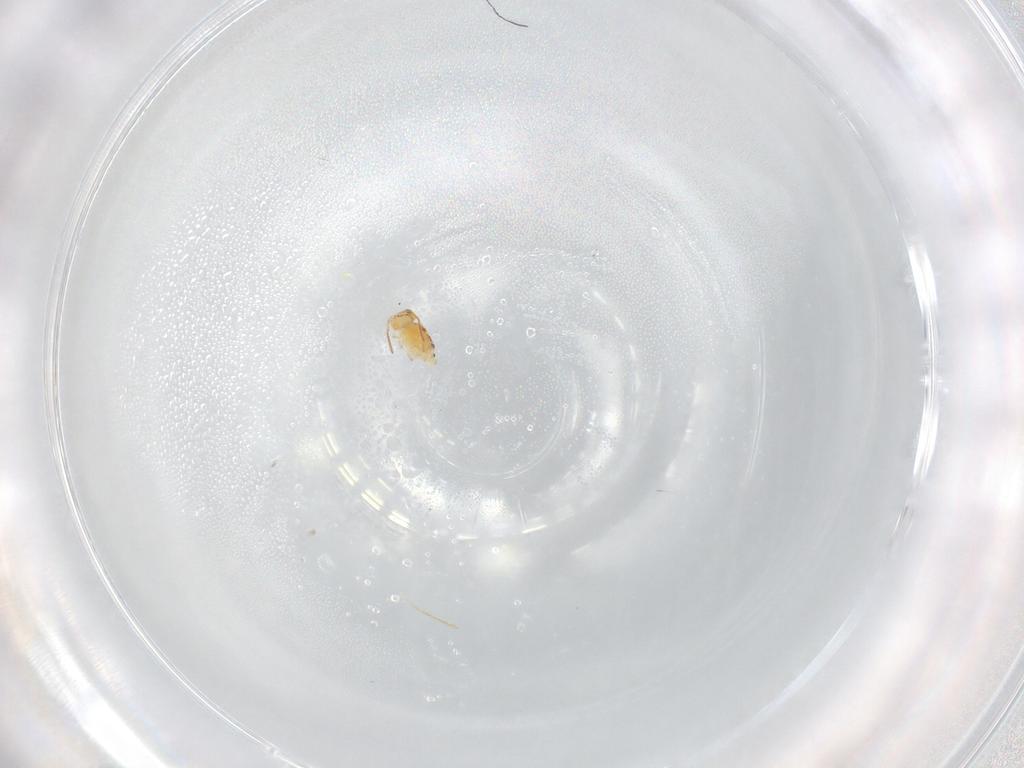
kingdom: Animalia
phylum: Arthropoda
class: Collembola
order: Symphypleona
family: Bourletiellidae
